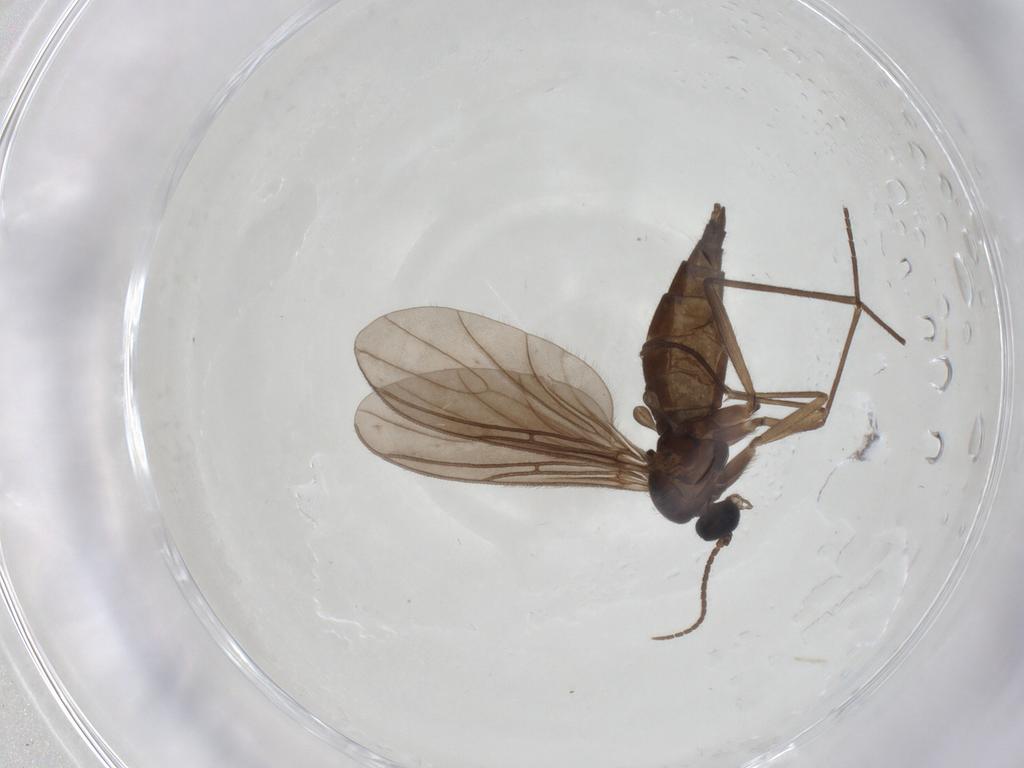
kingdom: Animalia
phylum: Arthropoda
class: Insecta
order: Diptera
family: Sciaridae
